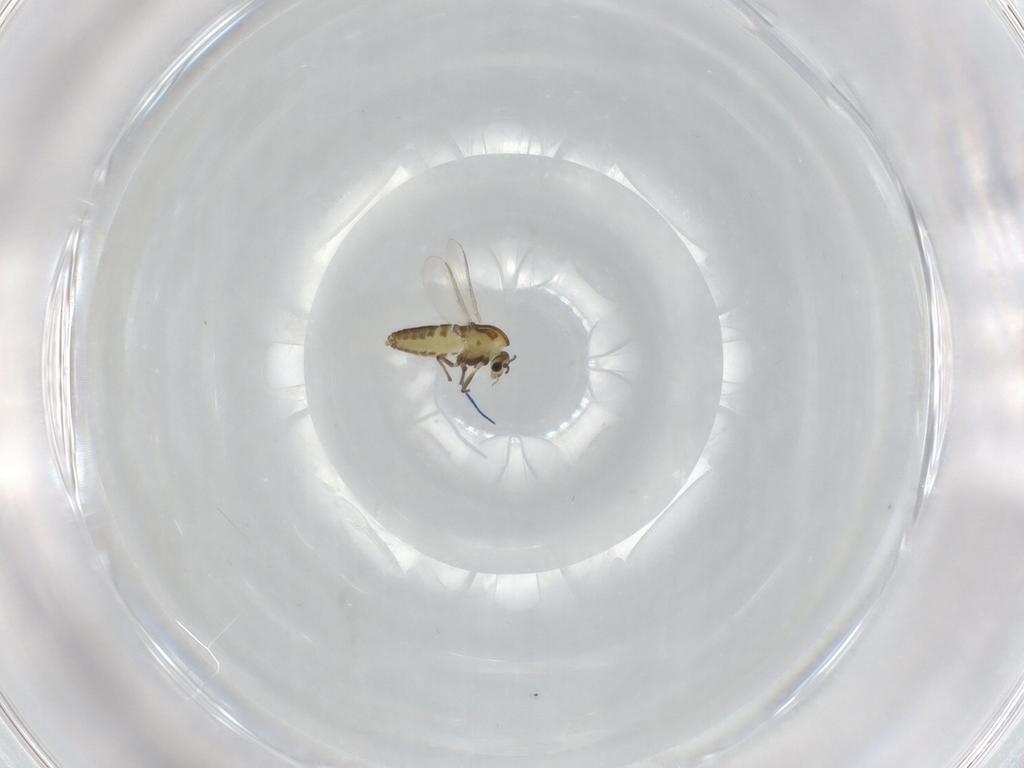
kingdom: Animalia
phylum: Arthropoda
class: Insecta
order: Diptera
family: Chironomidae
